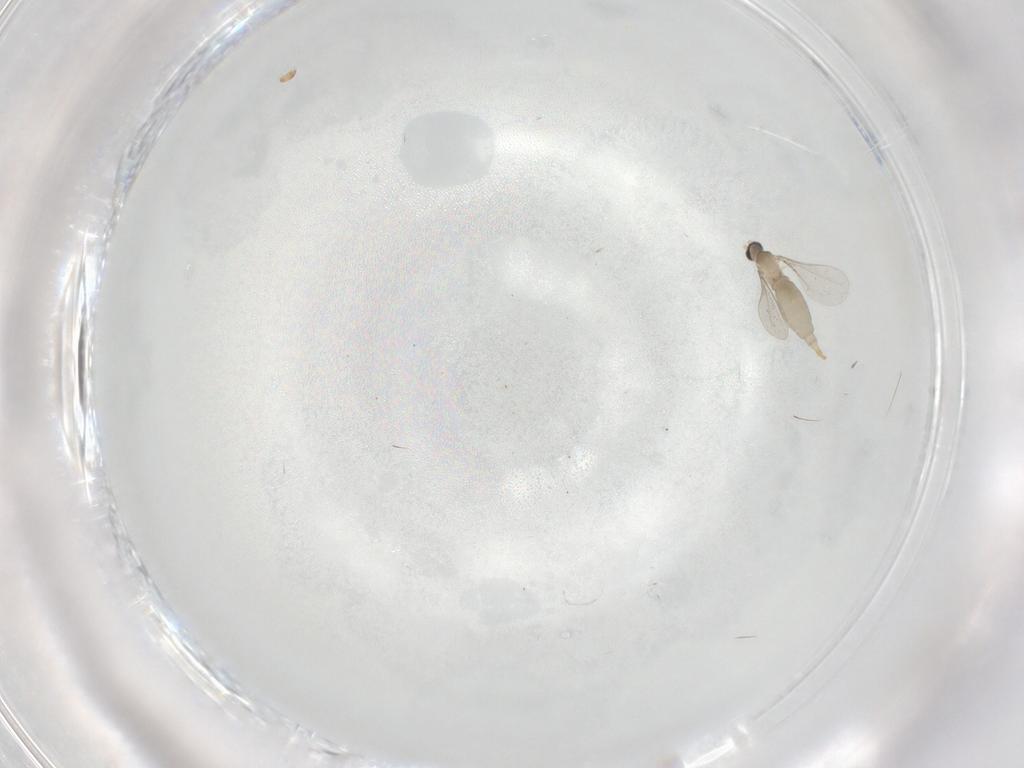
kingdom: Animalia
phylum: Arthropoda
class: Insecta
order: Diptera
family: Cecidomyiidae
